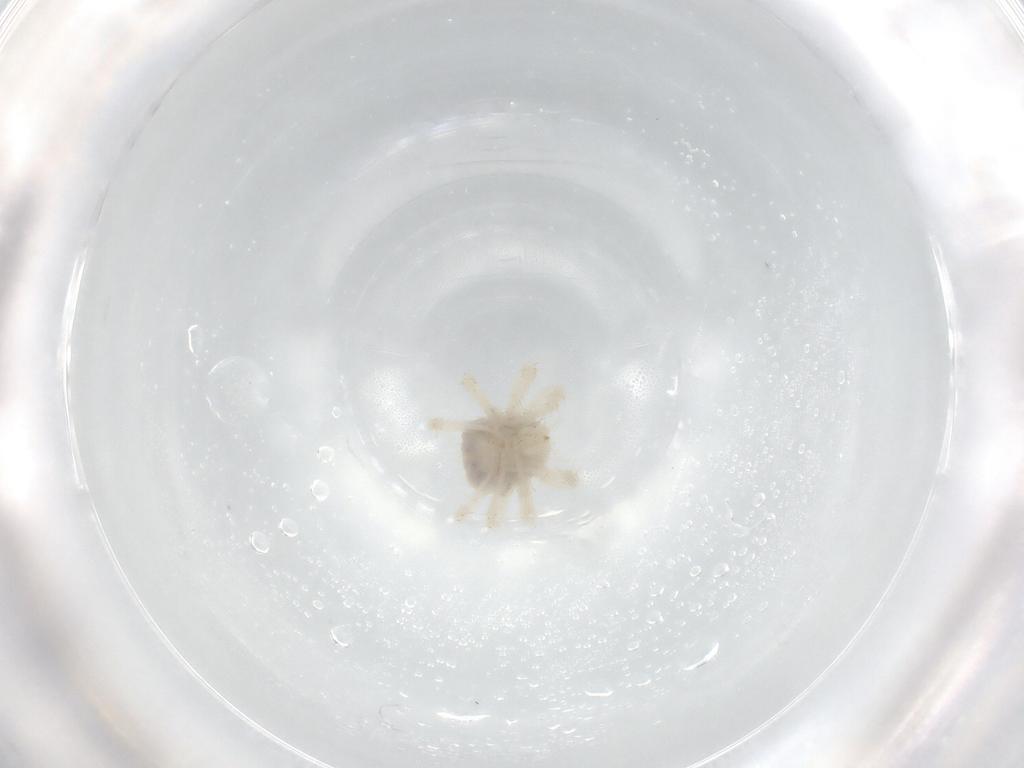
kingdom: Animalia
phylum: Arthropoda
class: Arachnida
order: Trombidiformes
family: Anystidae
